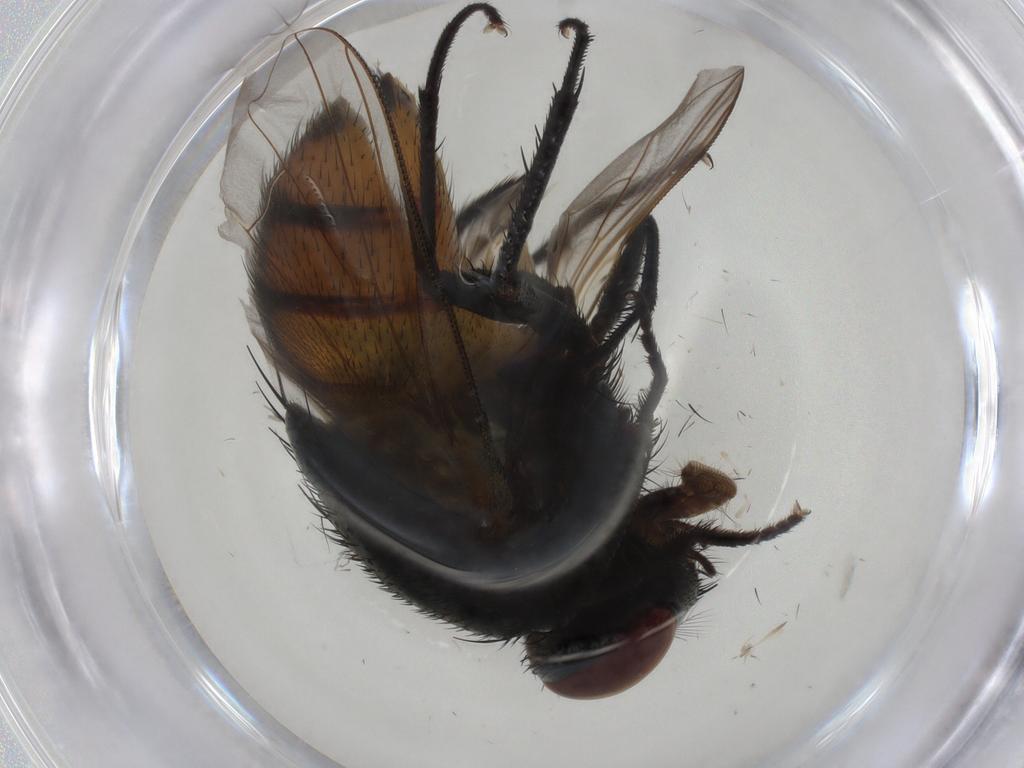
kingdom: Animalia
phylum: Arthropoda
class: Insecta
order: Diptera
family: Muscidae
